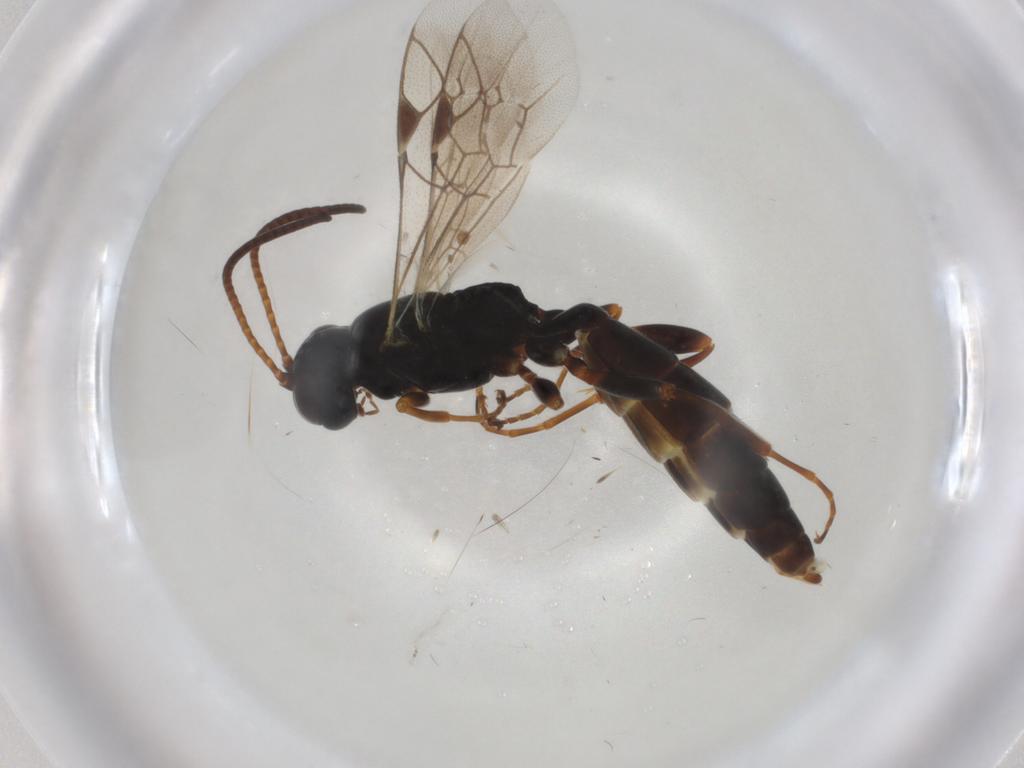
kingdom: Animalia
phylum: Arthropoda
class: Insecta
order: Hymenoptera
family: Ichneumonidae
